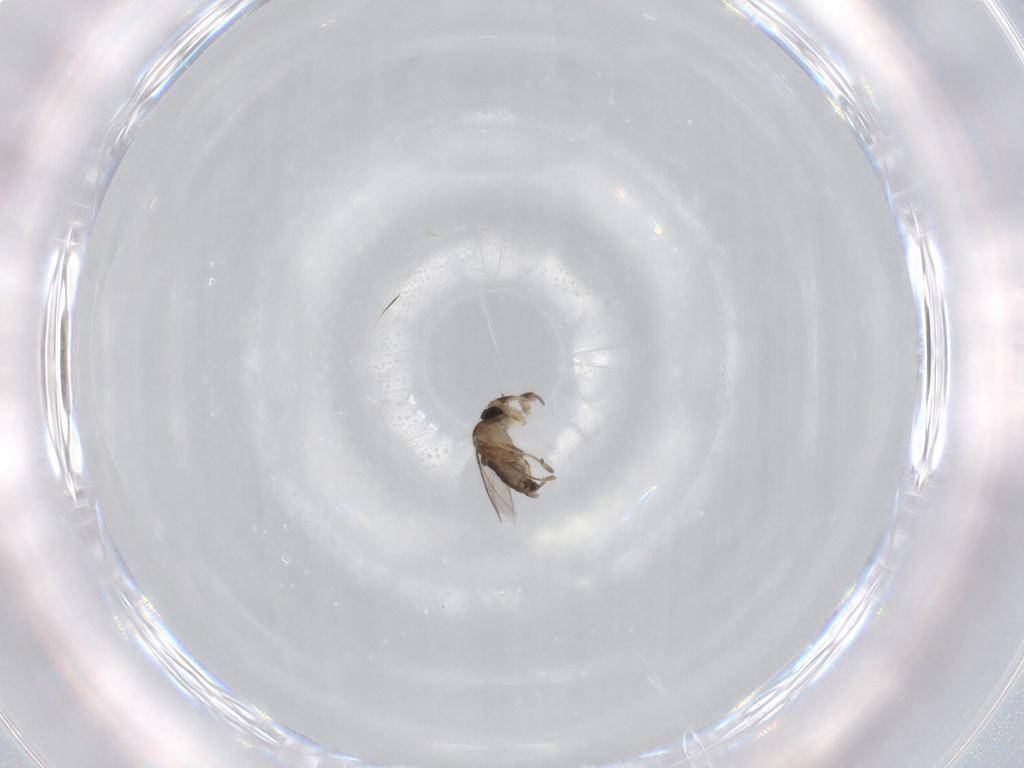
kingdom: Animalia
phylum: Arthropoda
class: Insecta
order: Diptera
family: Phoridae
